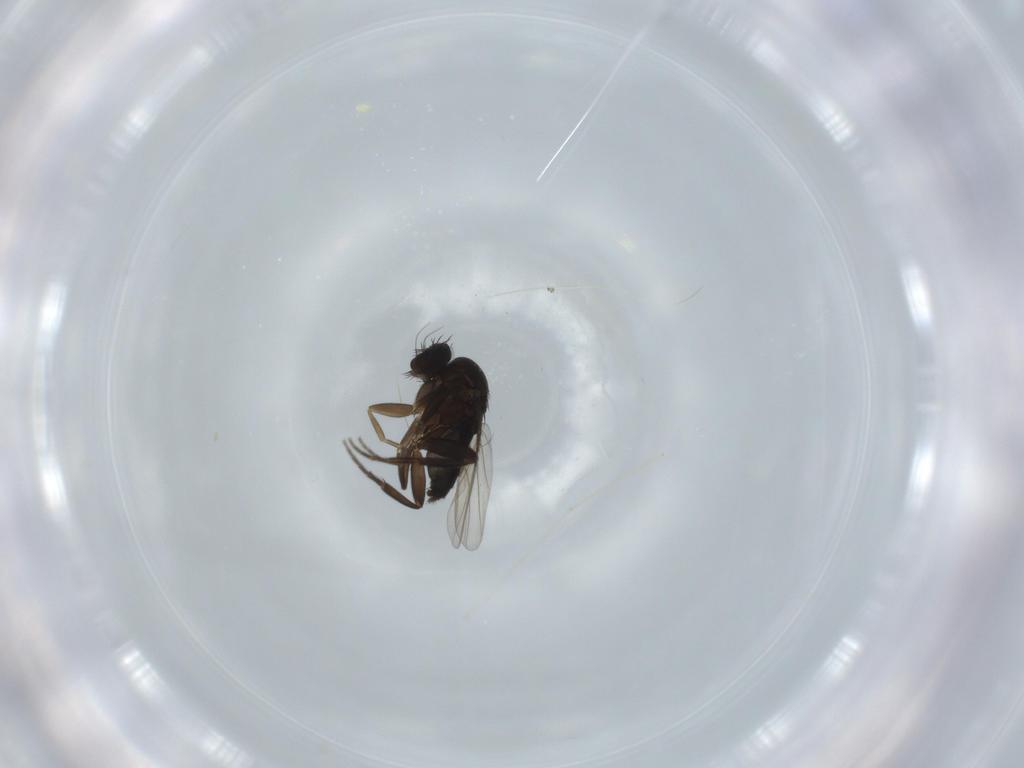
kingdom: Animalia
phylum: Arthropoda
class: Insecta
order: Diptera
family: Phoridae
